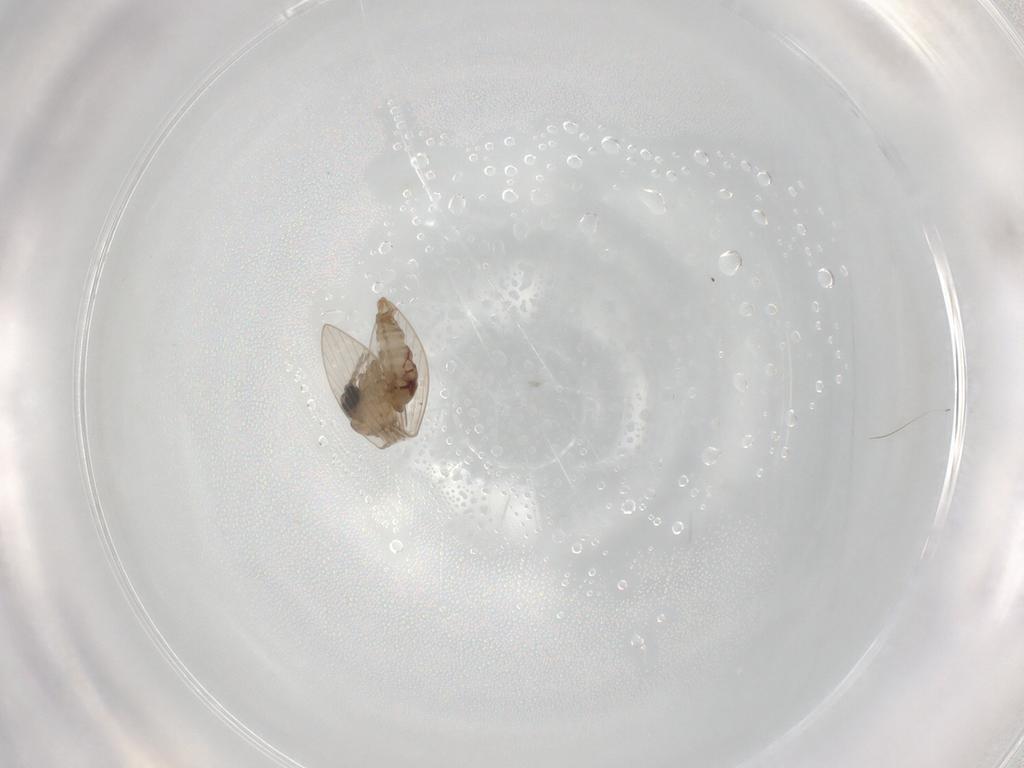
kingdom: Animalia
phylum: Arthropoda
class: Insecta
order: Diptera
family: Psychodidae
